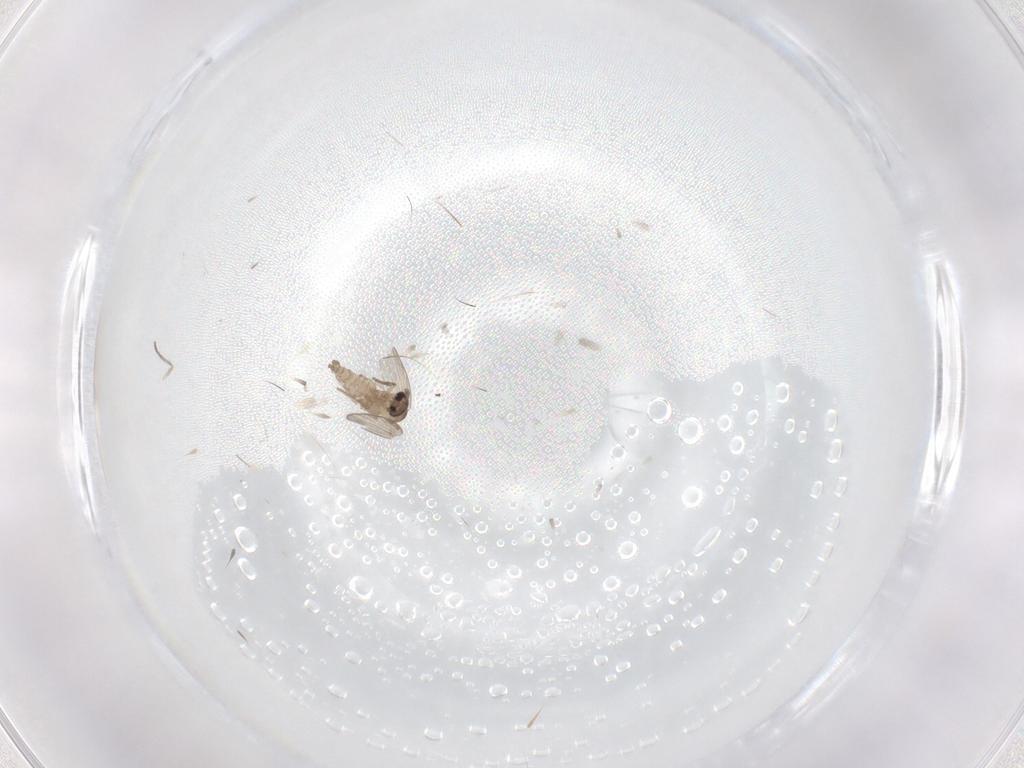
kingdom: Animalia
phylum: Arthropoda
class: Insecta
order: Diptera
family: Psychodidae
